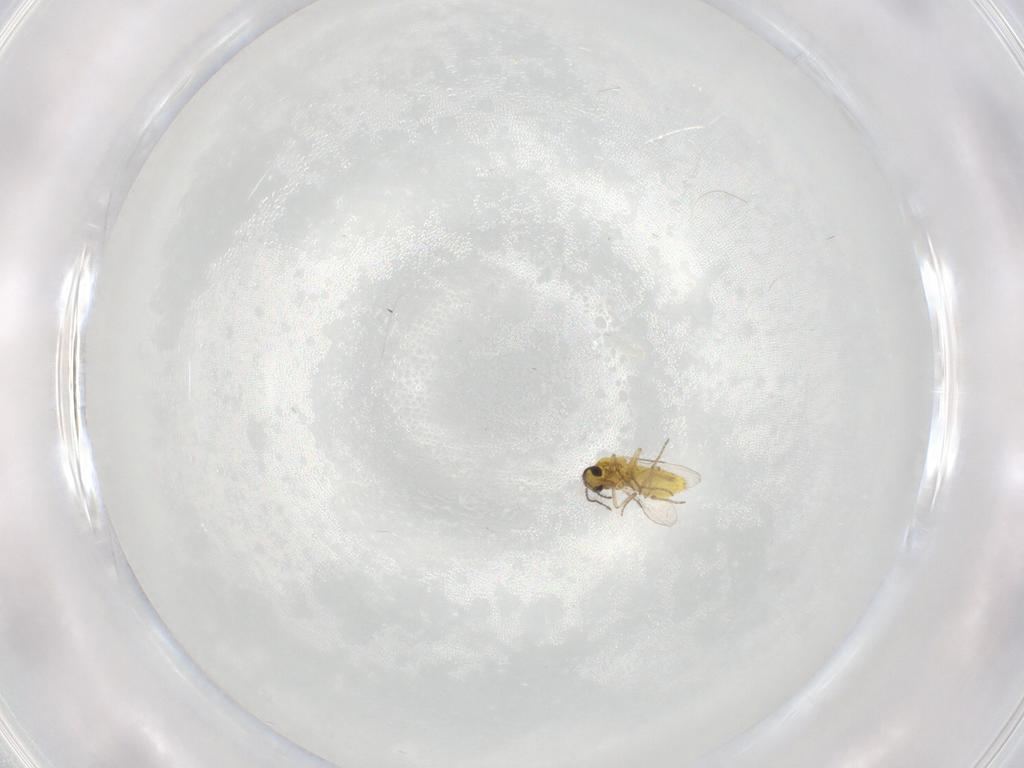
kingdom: Animalia
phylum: Arthropoda
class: Insecta
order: Diptera
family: Ceratopogonidae
